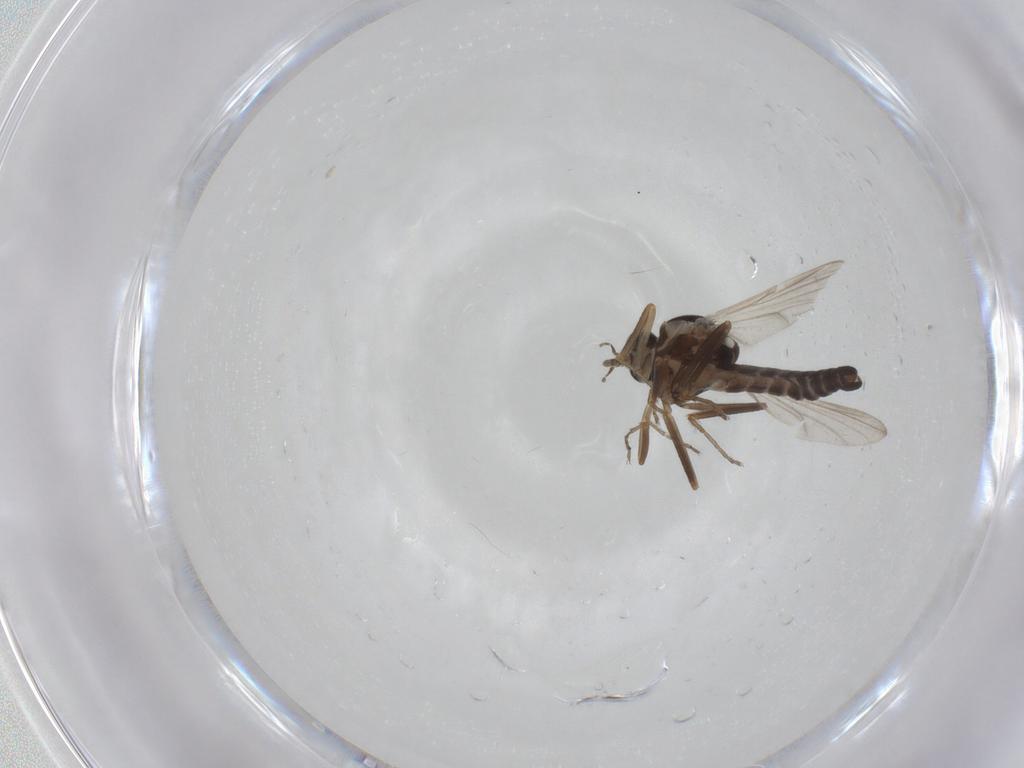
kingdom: Animalia
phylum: Arthropoda
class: Insecta
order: Diptera
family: Ceratopogonidae
